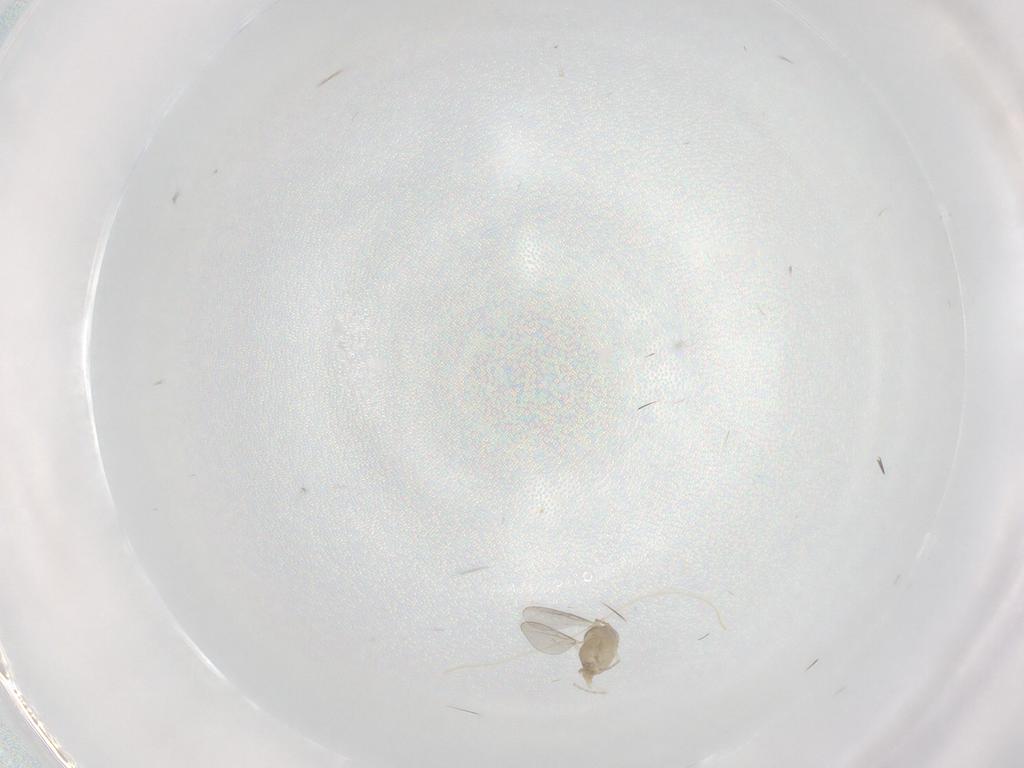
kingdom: Animalia
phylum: Arthropoda
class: Insecta
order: Diptera
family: Cecidomyiidae
